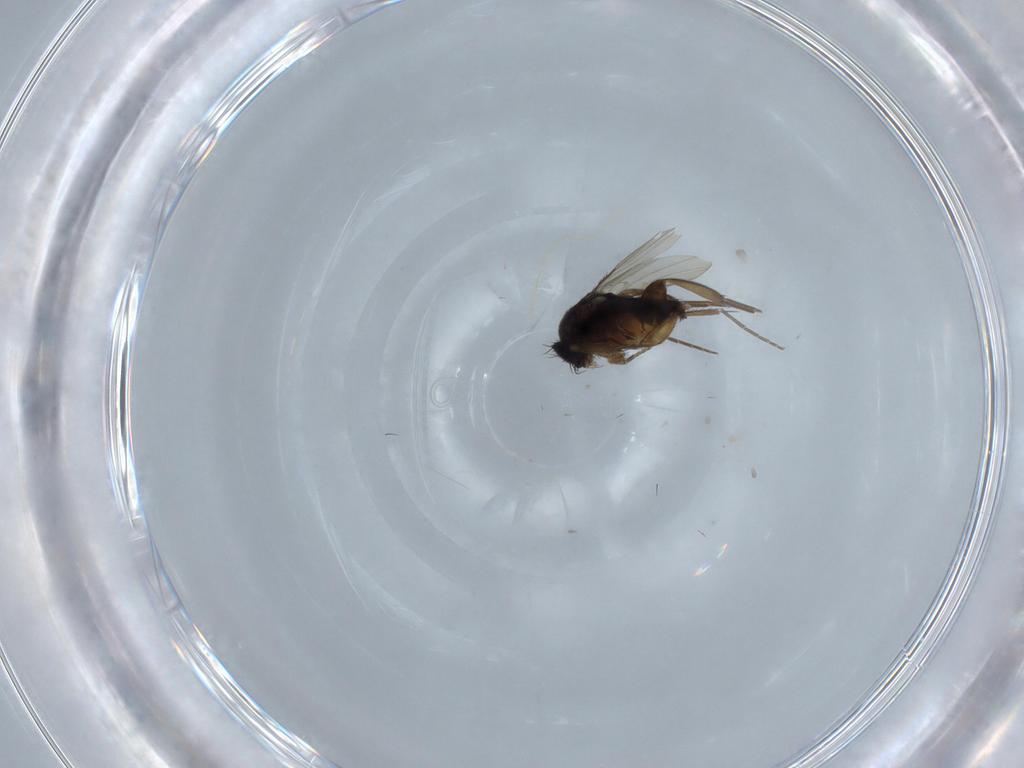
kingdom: Animalia
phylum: Arthropoda
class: Insecta
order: Diptera
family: Phoridae
